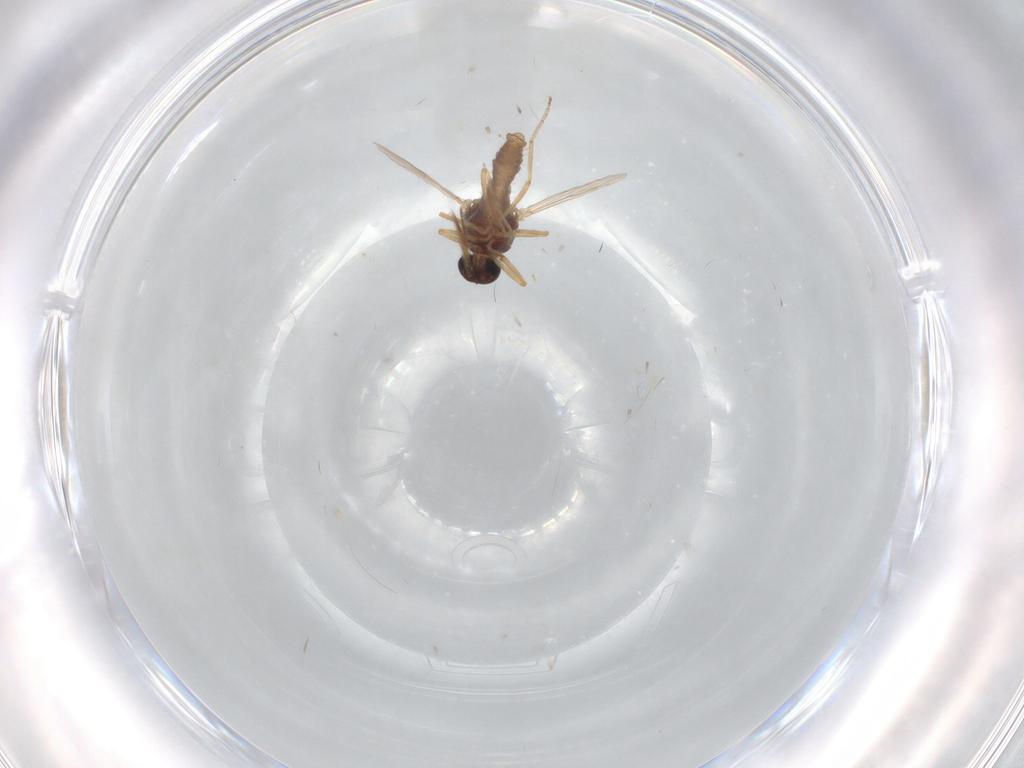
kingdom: Animalia
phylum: Arthropoda
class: Insecta
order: Diptera
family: Ceratopogonidae
